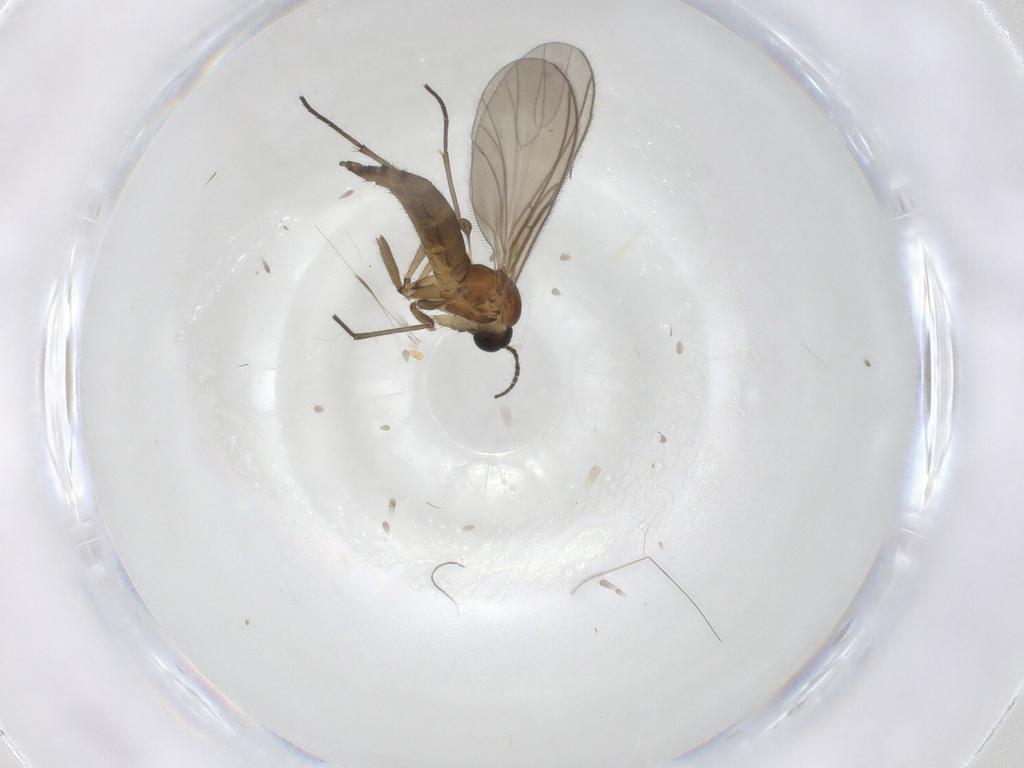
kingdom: Animalia
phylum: Arthropoda
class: Insecta
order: Diptera
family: Sciaridae
